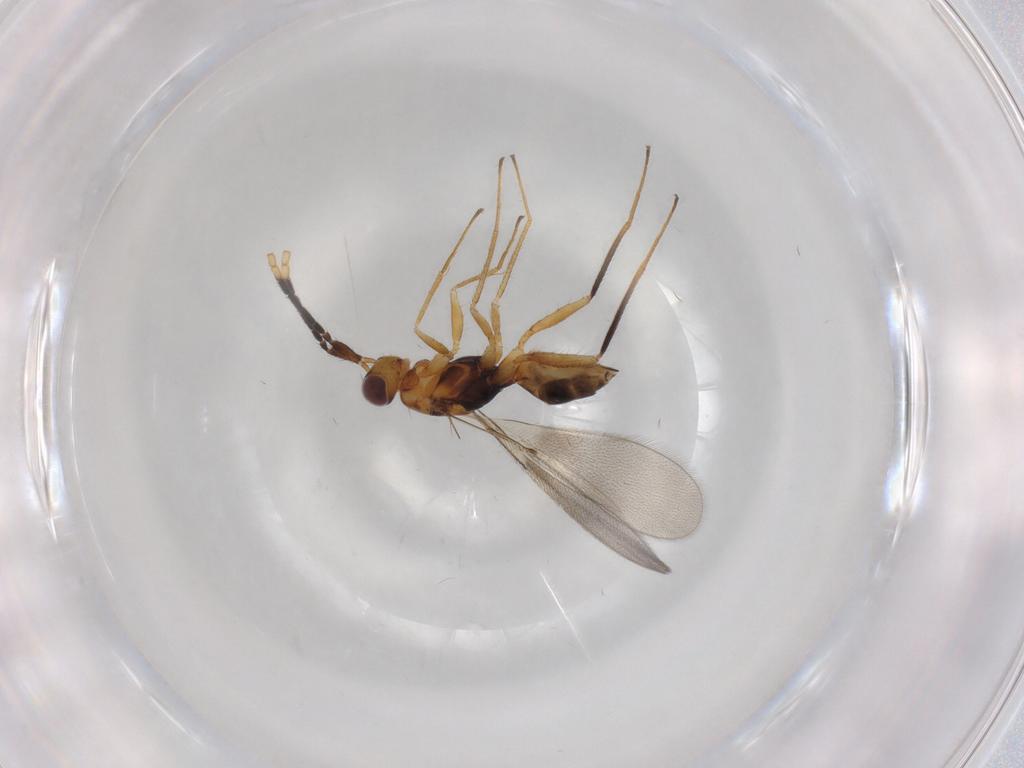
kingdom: Animalia
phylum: Arthropoda
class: Insecta
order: Hymenoptera
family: Mymaridae
